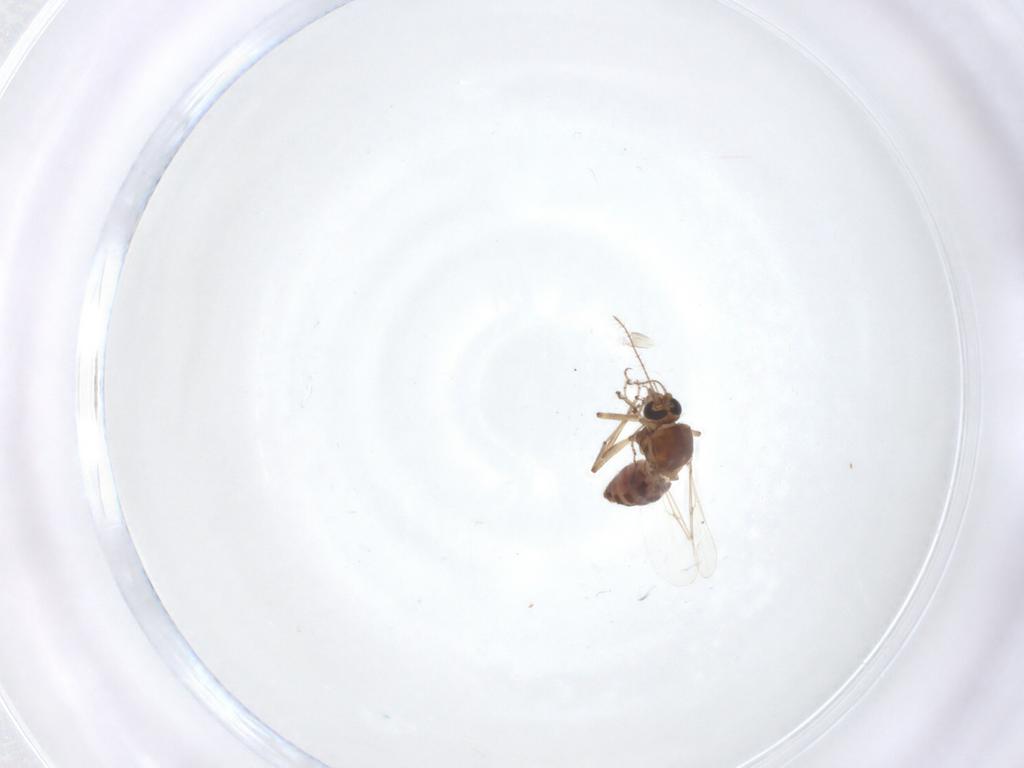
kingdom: Animalia
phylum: Arthropoda
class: Insecta
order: Diptera
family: Ceratopogonidae
